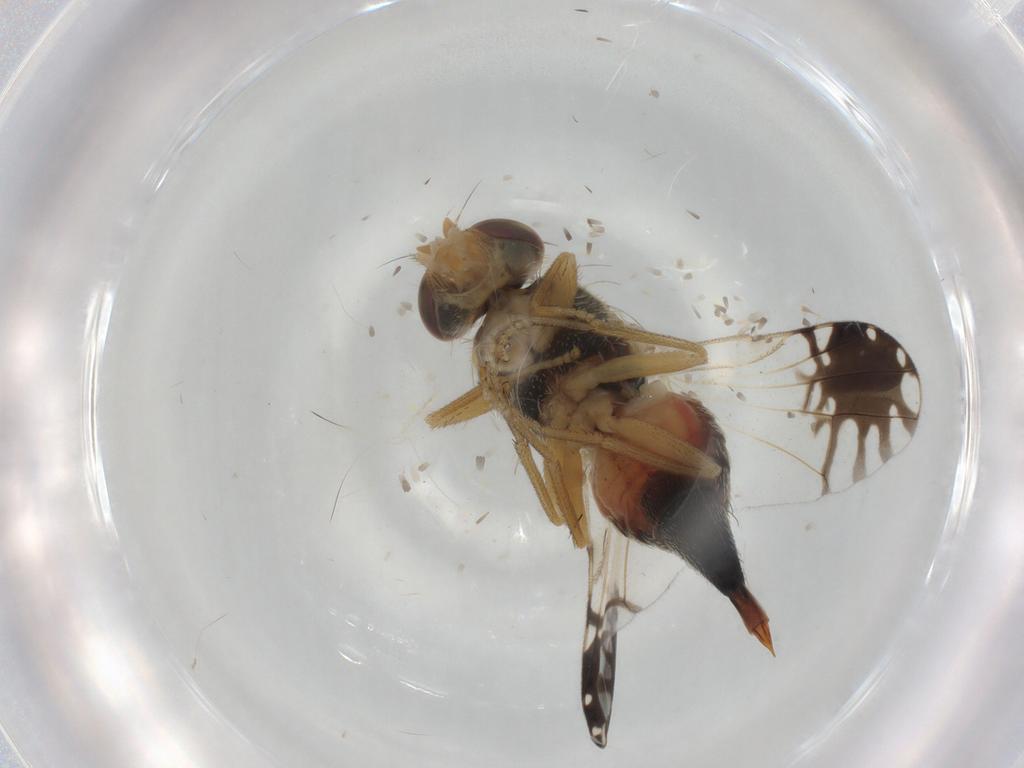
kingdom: Animalia
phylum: Arthropoda
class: Insecta
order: Diptera
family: Tephritidae
